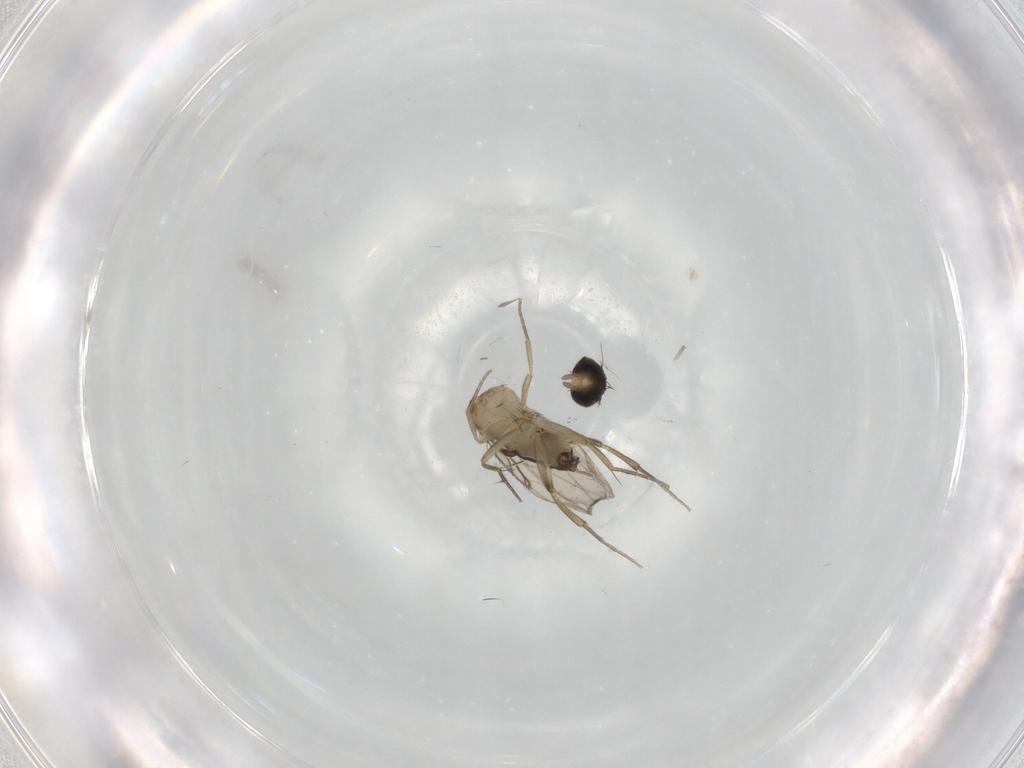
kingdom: Animalia
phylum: Arthropoda
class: Insecta
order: Diptera
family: Phoridae
